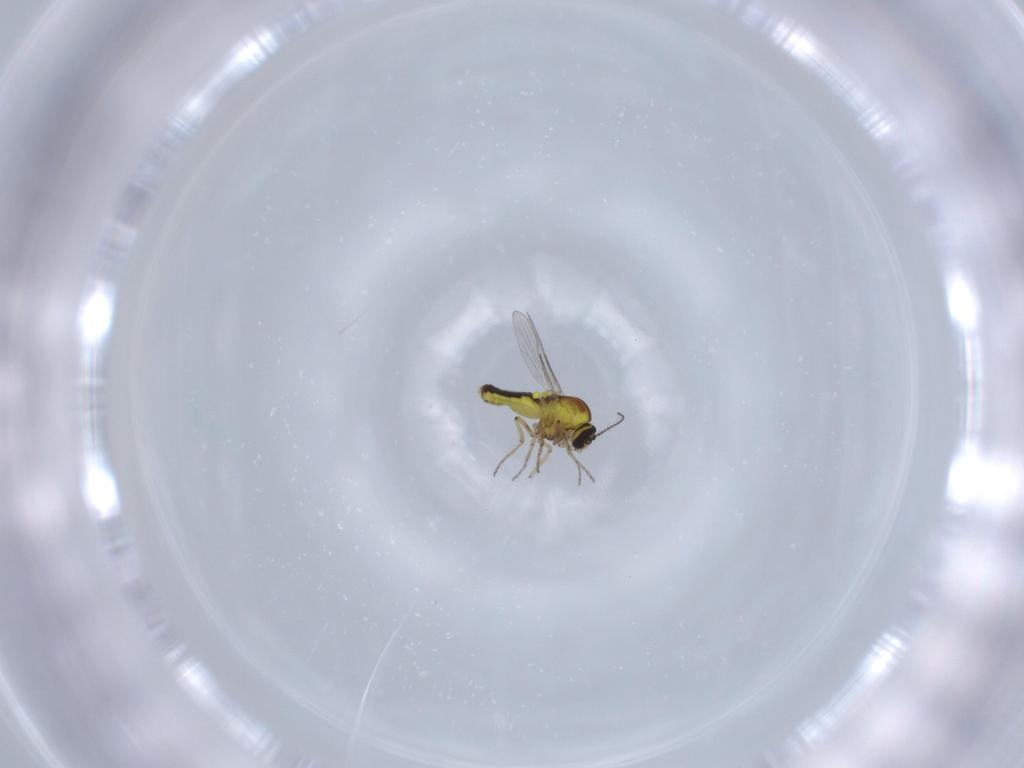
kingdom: Animalia
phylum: Arthropoda
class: Insecta
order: Diptera
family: Ceratopogonidae
